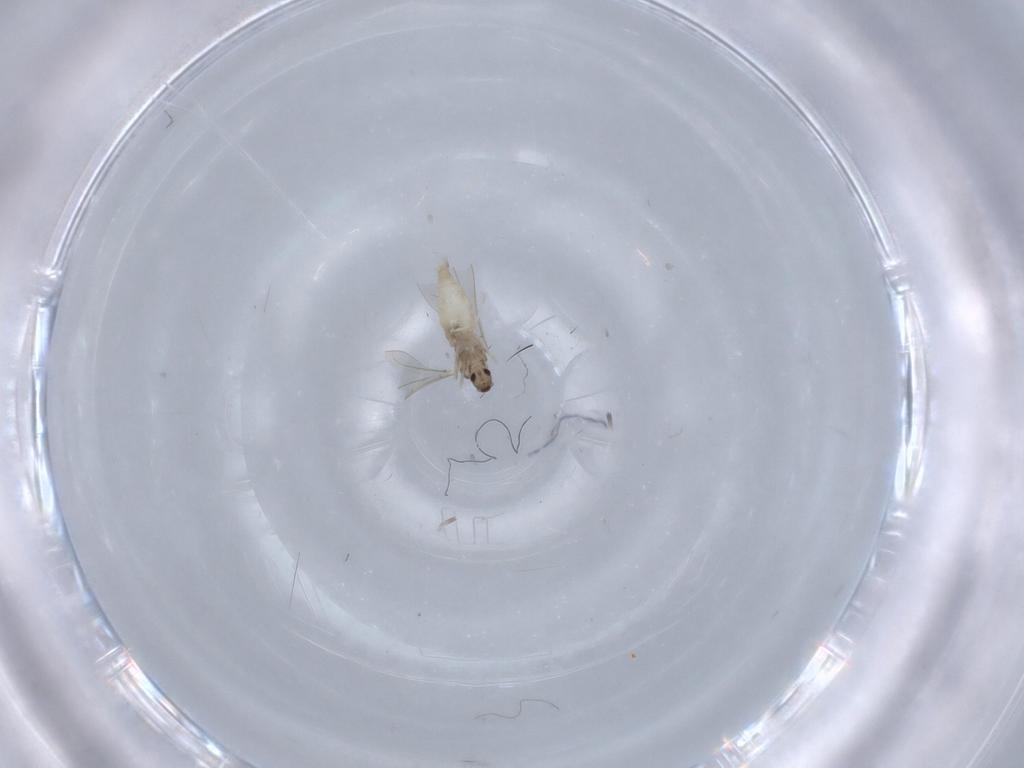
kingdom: Animalia
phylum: Arthropoda
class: Insecta
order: Diptera
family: Cecidomyiidae
